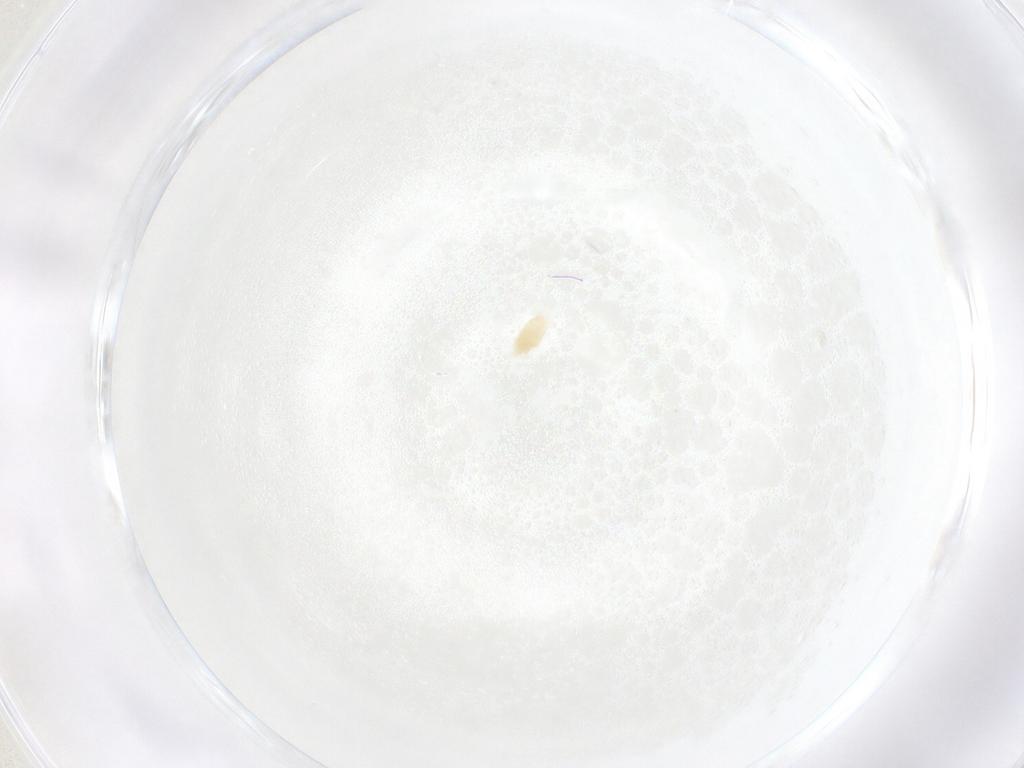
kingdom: Animalia
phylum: Arthropoda
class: Arachnida
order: Trombidiformes
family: Eupodidae
